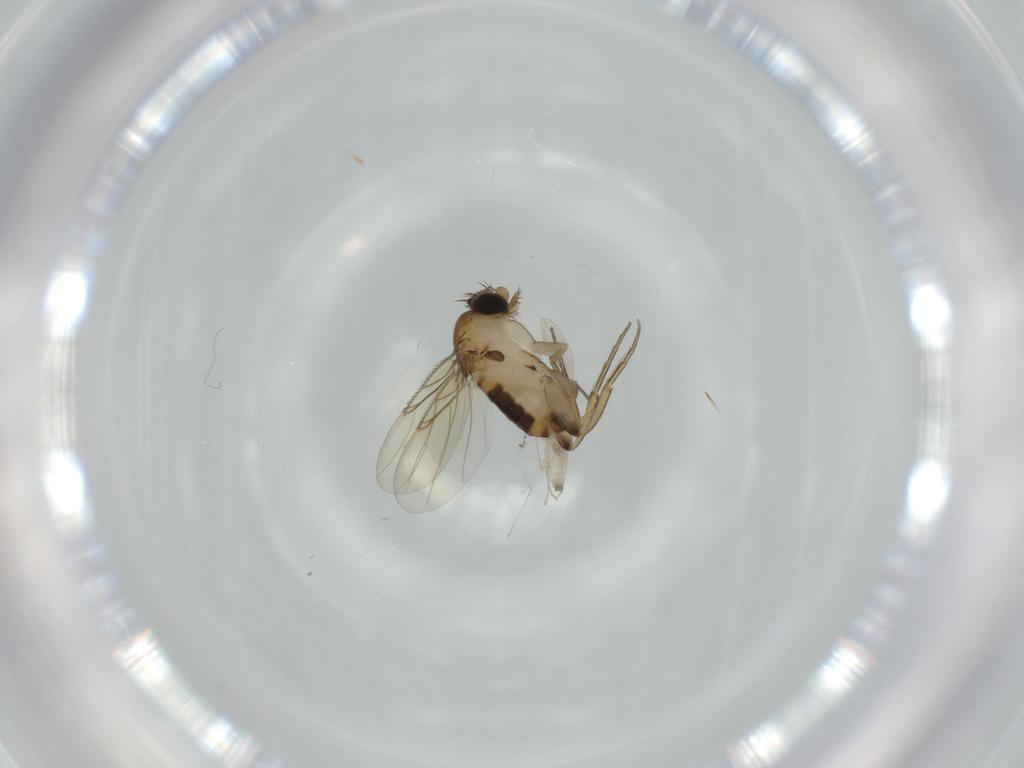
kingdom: Animalia
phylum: Arthropoda
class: Insecta
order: Diptera
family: Cecidomyiidae
